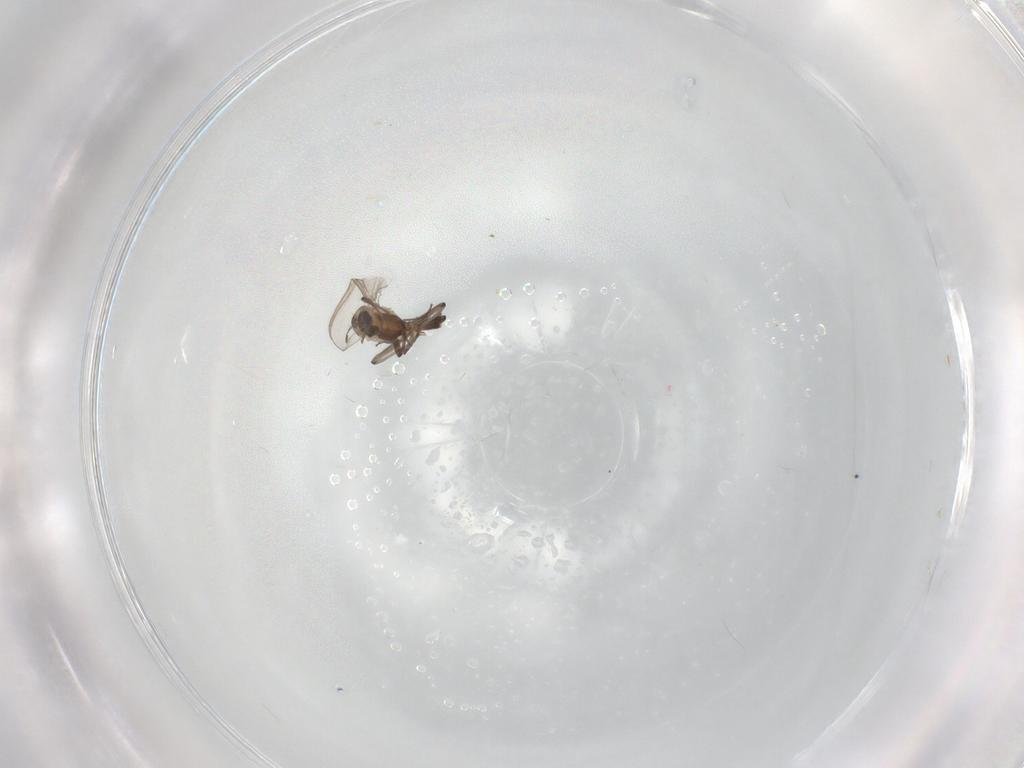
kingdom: Animalia
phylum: Arthropoda
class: Insecta
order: Diptera
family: Chironomidae
